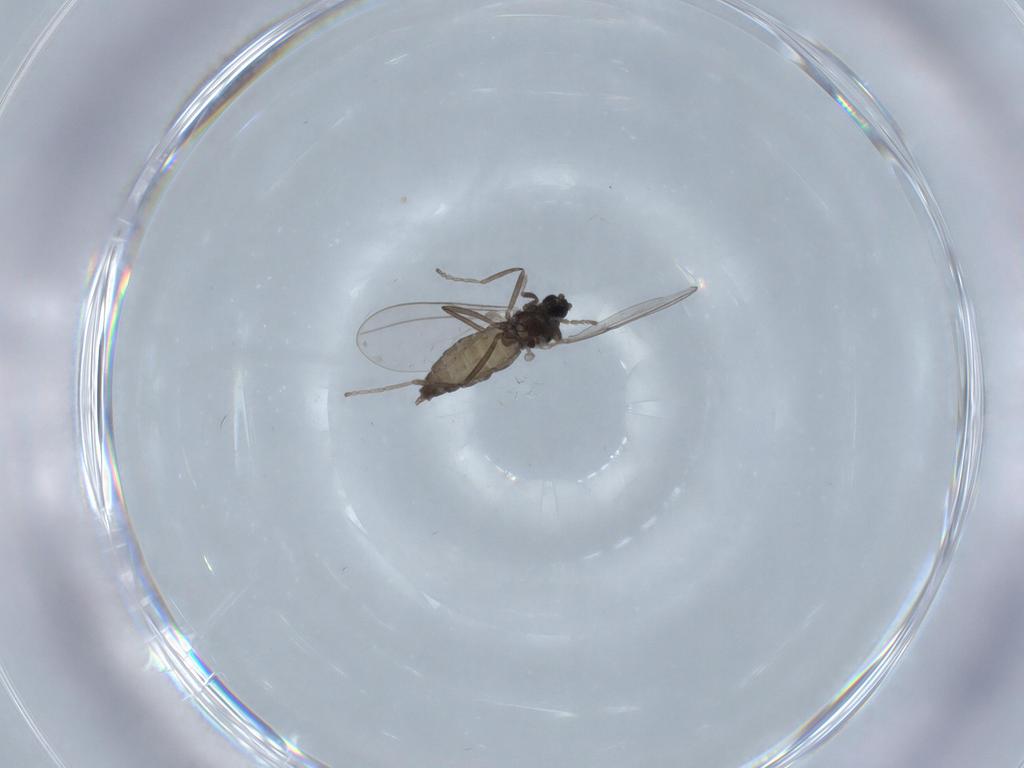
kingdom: Animalia
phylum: Arthropoda
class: Insecta
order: Diptera
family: Cecidomyiidae
